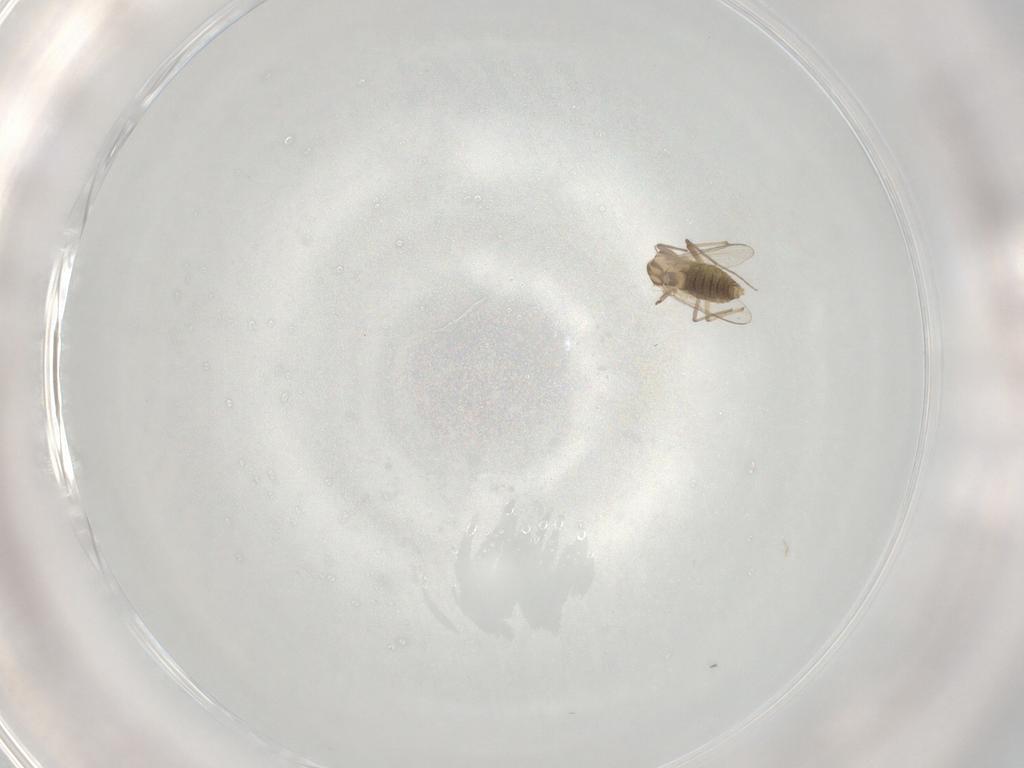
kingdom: Animalia
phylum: Arthropoda
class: Insecta
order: Diptera
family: Chironomidae
